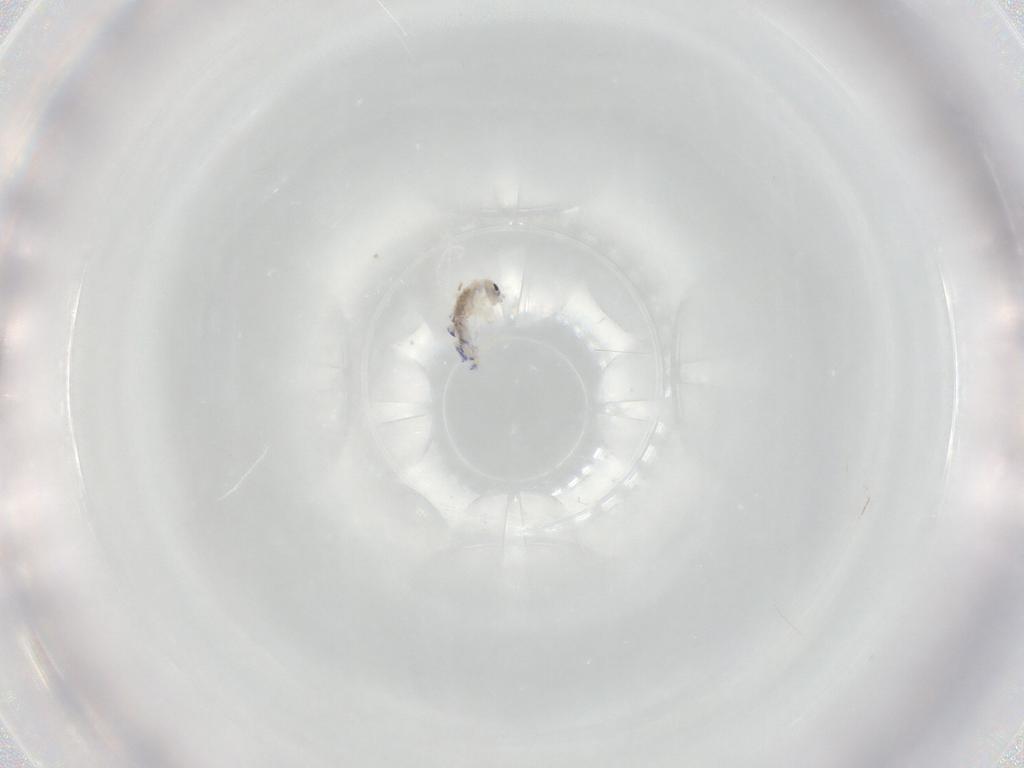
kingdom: Animalia
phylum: Arthropoda
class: Collembola
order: Entomobryomorpha
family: Entomobryidae
